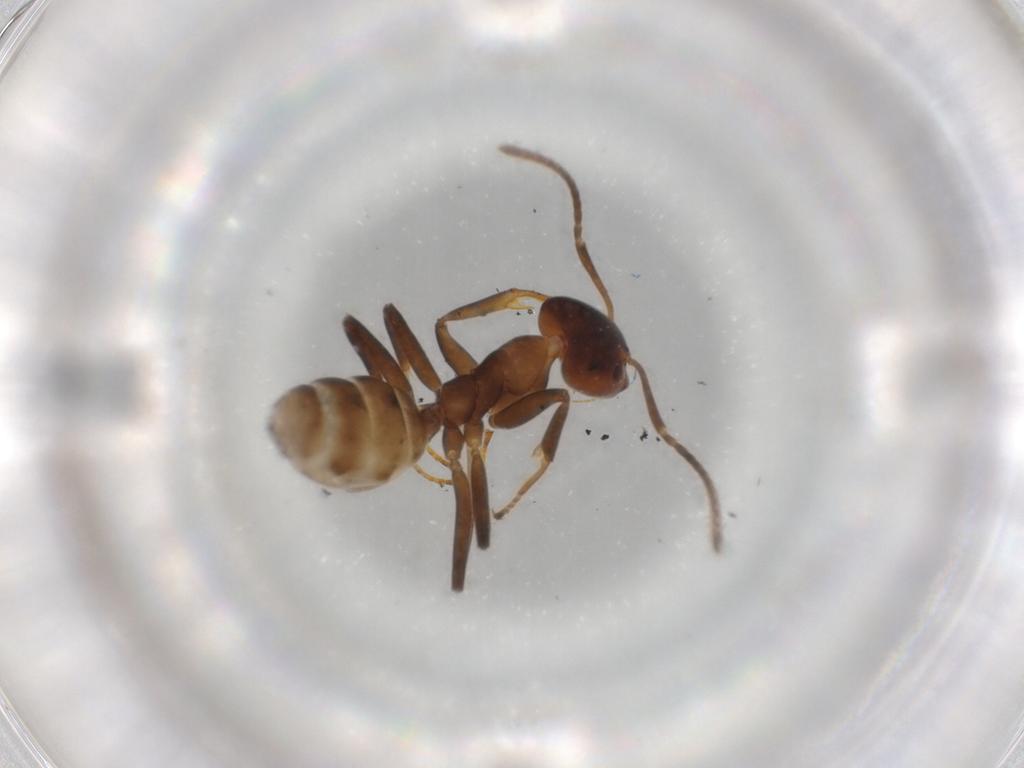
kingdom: Animalia
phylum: Arthropoda
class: Insecta
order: Hymenoptera
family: Formicidae
